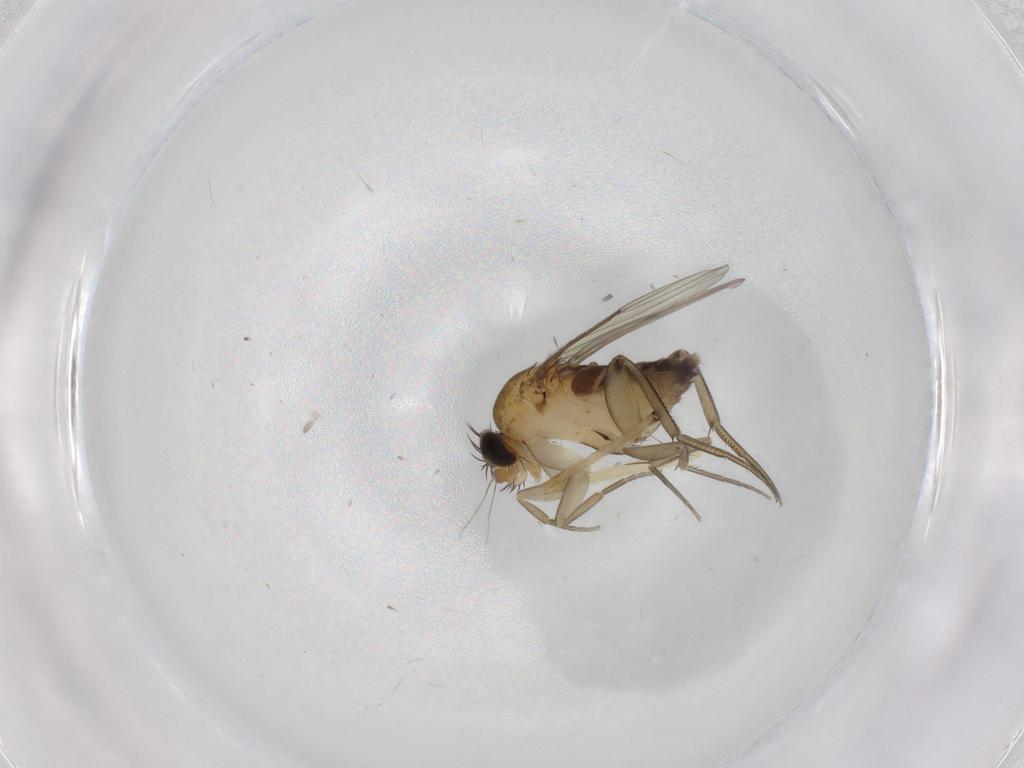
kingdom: Animalia
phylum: Arthropoda
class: Insecta
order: Diptera
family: Phoridae
